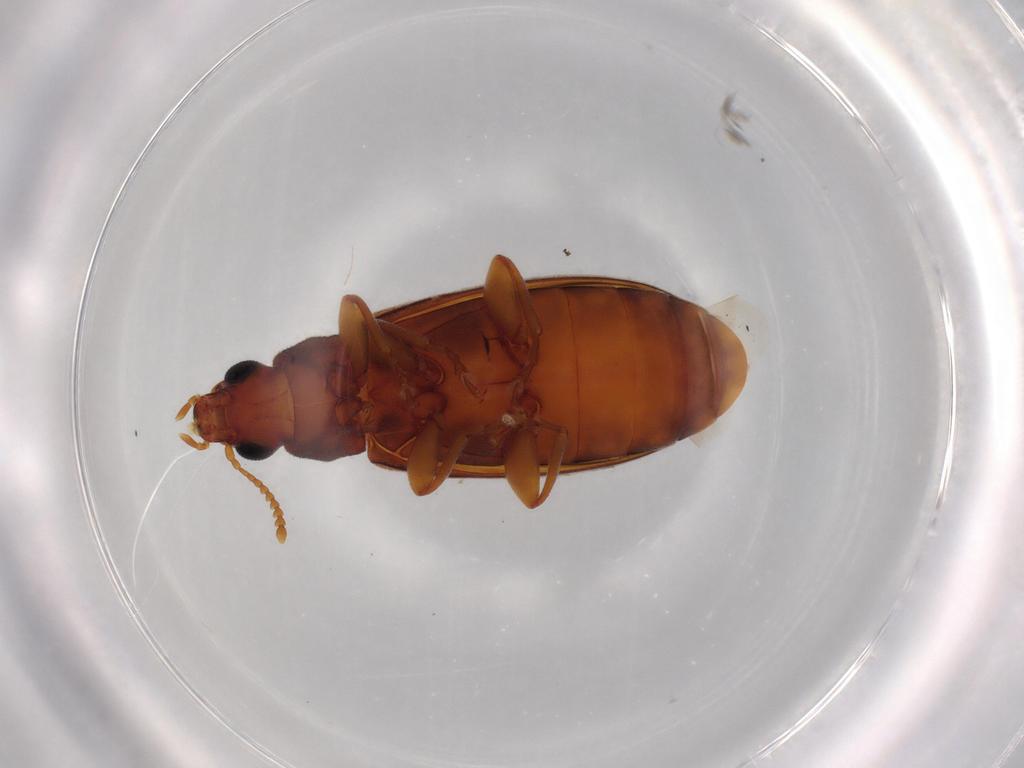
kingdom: Animalia
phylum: Arthropoda
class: Insecta
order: Coleoptera
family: Mycteridae
